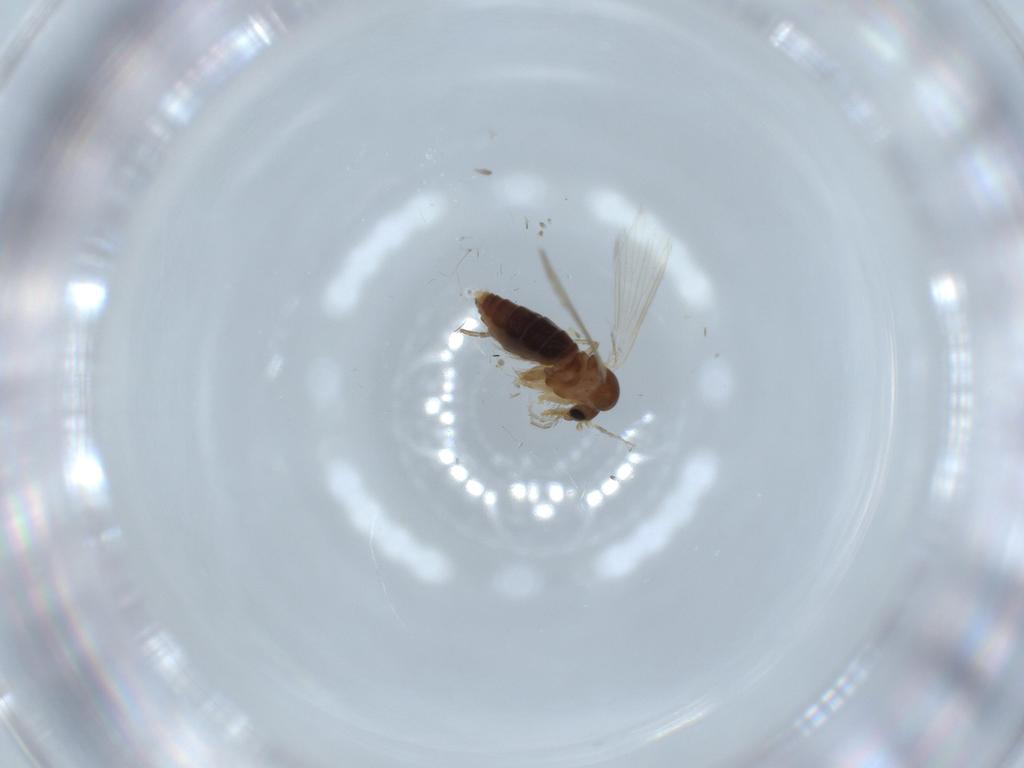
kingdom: Animalia
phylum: Arthropoda
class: Insecta
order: Diptera
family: Psychodidae
